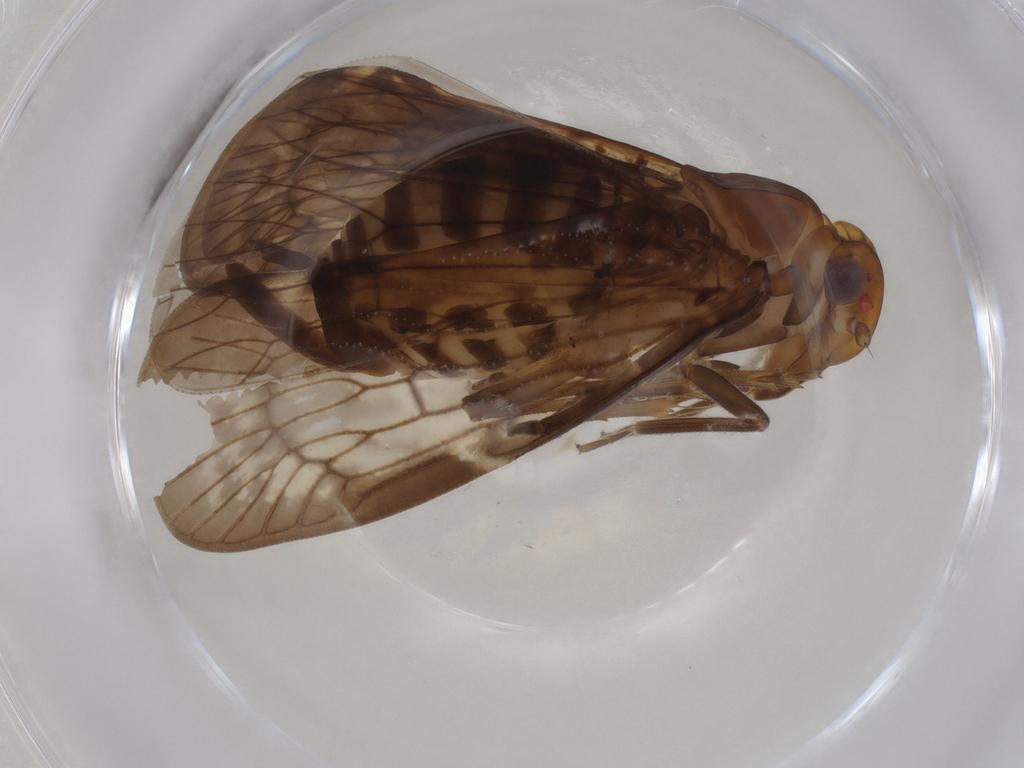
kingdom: Animalia
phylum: Arthropoda
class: Insecta
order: Hemiptera
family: Cixiidae
